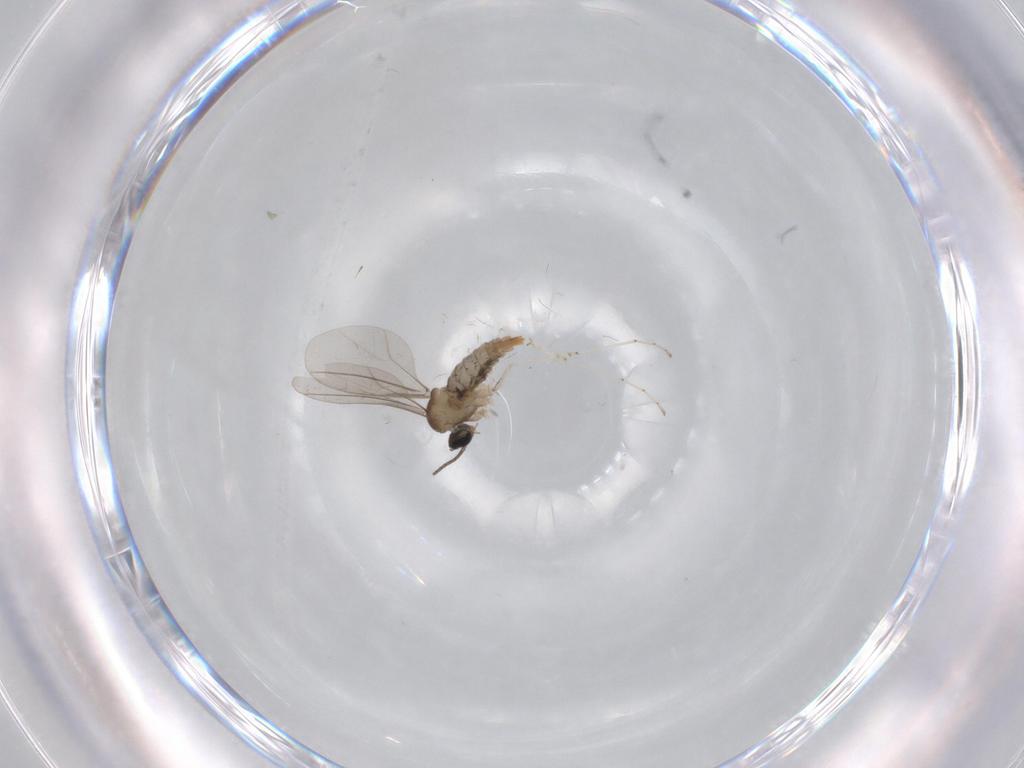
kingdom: Animalia
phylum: Arthropoda
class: Insecta
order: Diptera
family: Cecidomyiidae
